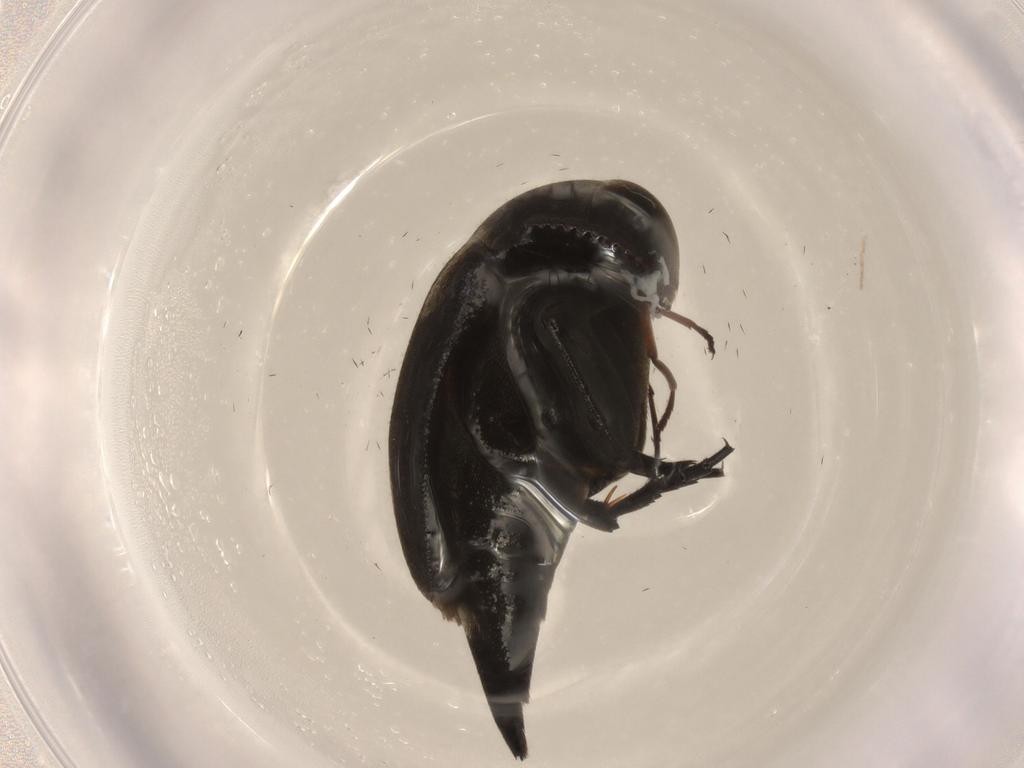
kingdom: Animalia
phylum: Arthropoda
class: Insecta
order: Coleoptera
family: Mordellidae
